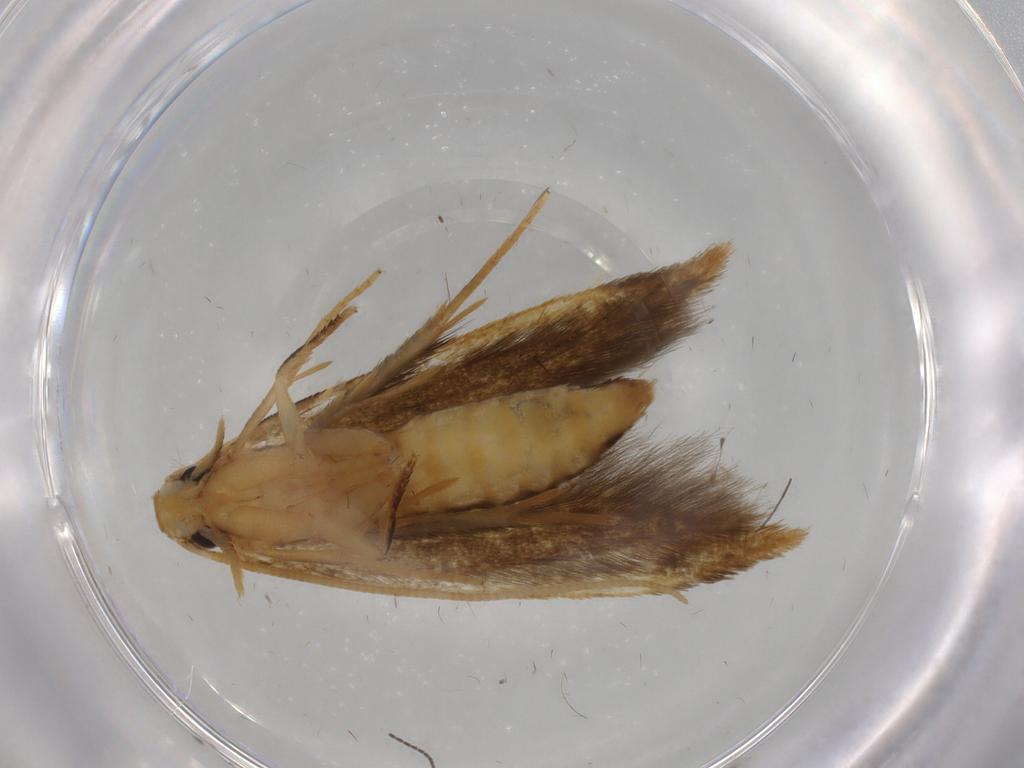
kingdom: Animalia
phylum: Arthropoda
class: Insecta
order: Lepidoptera
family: Tineidae
